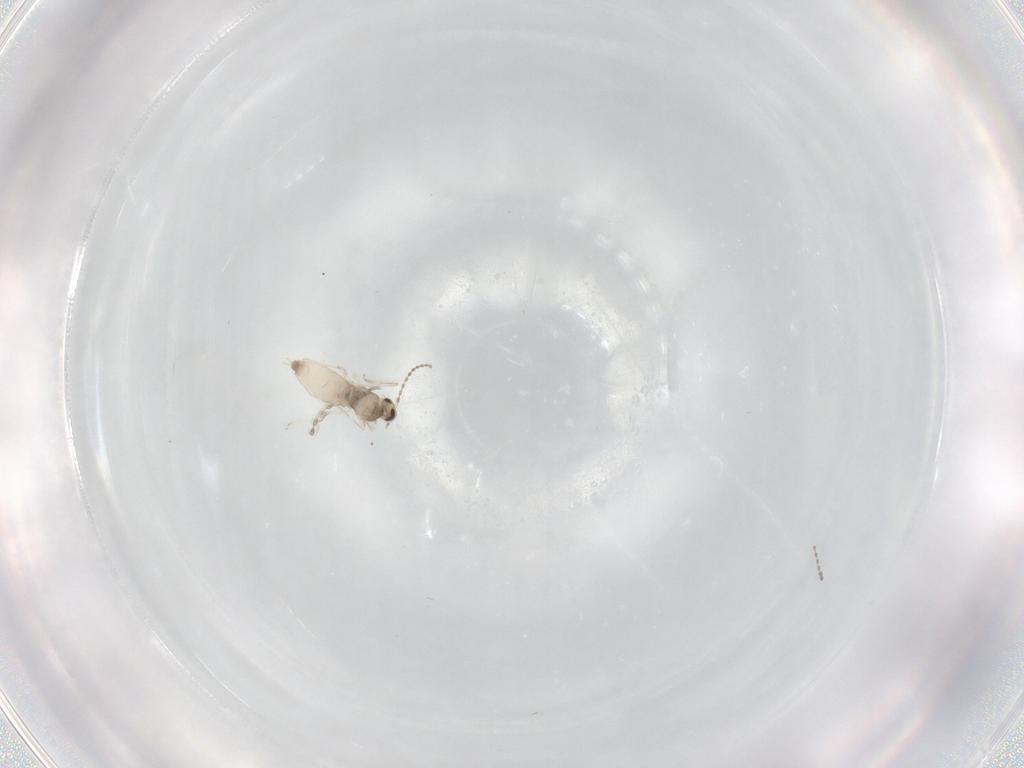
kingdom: Animalia
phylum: Arthropoda
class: Insecta
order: Diptera
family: Cecidomyiidae
